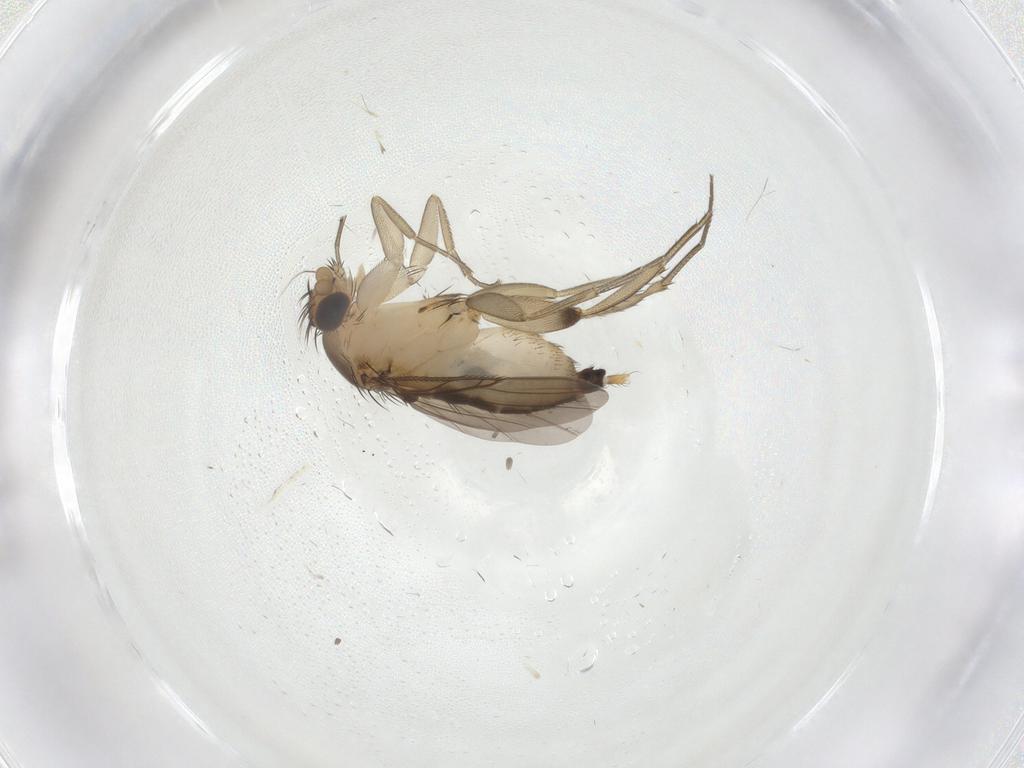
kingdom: Animalia
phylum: Arthropoda
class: Insecta
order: Diptera
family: Phoridae
